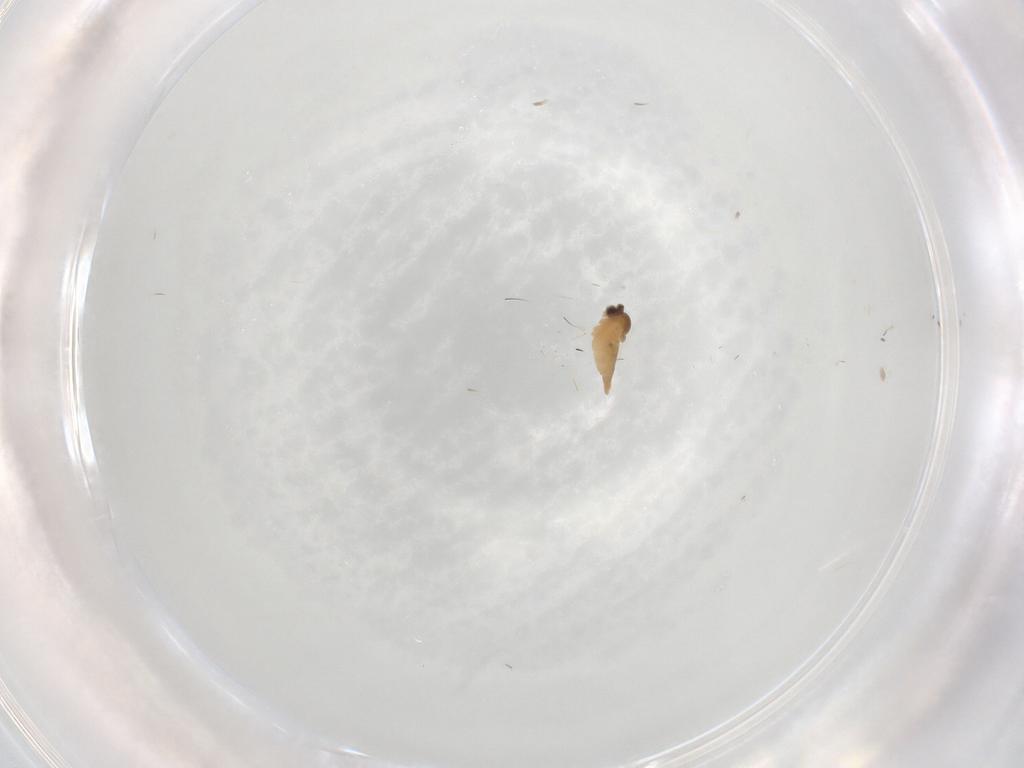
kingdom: Animalia
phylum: Arthropoda
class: Insecta
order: Diptera
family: Cecidomyiidae
